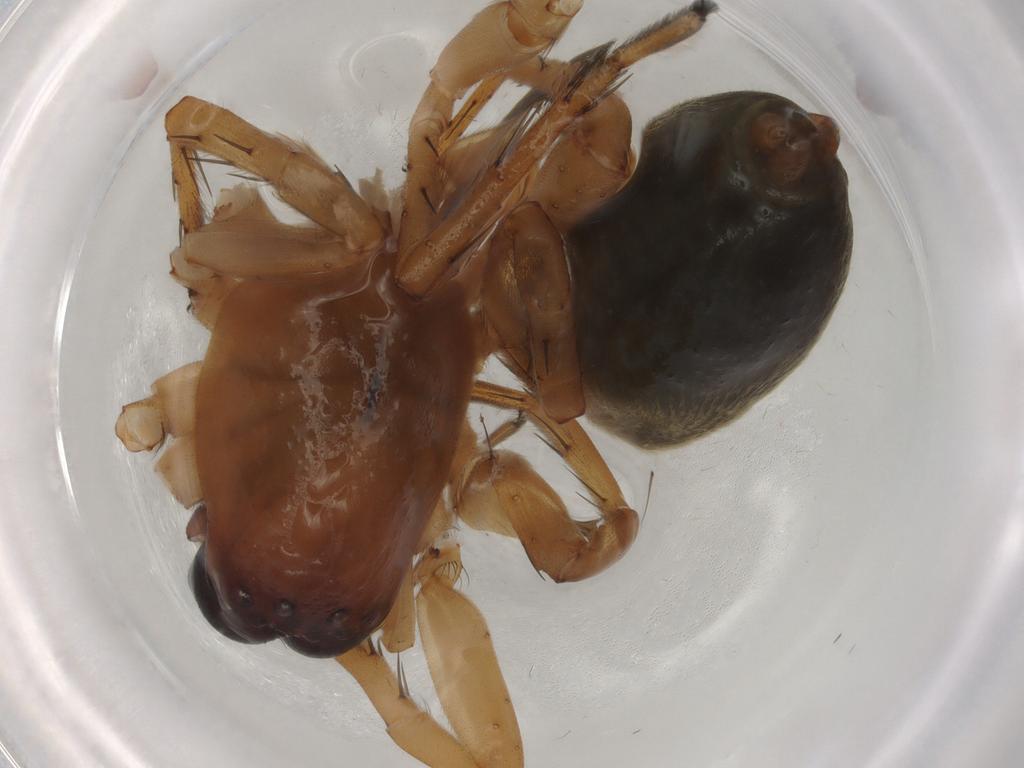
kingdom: Animalia
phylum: Arthropoda
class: Arachnida
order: Araneae
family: Clubionidae
